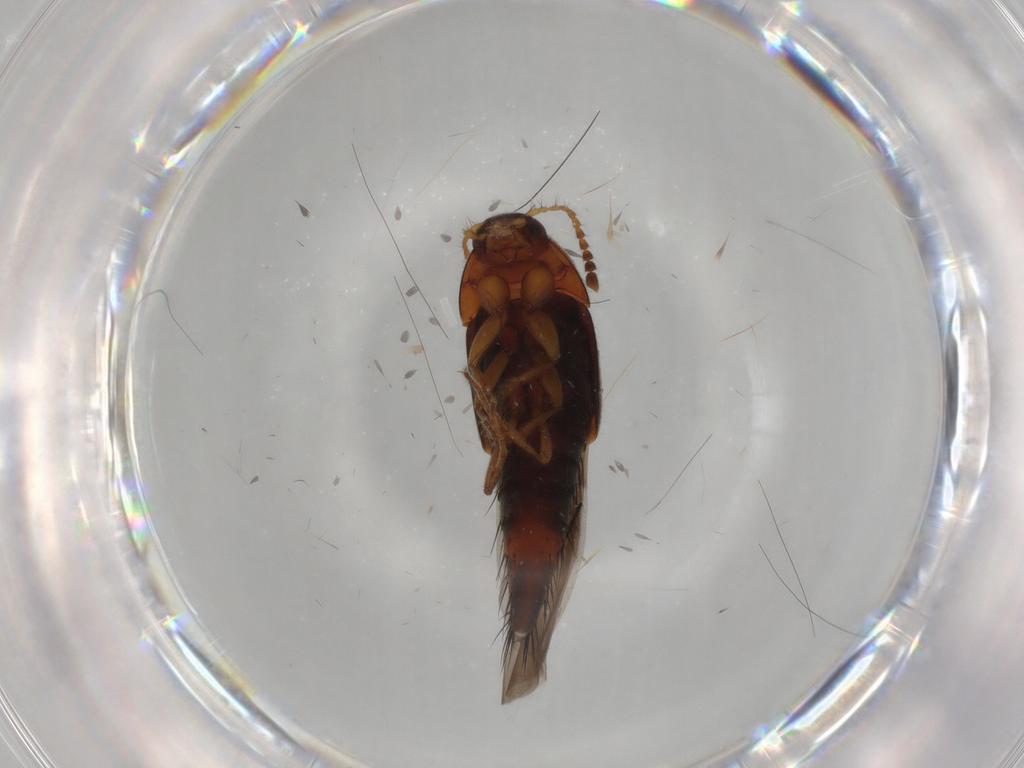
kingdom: Animalia
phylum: Arthropoda
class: Insecta
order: Coleoptera
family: Staphylinidae
